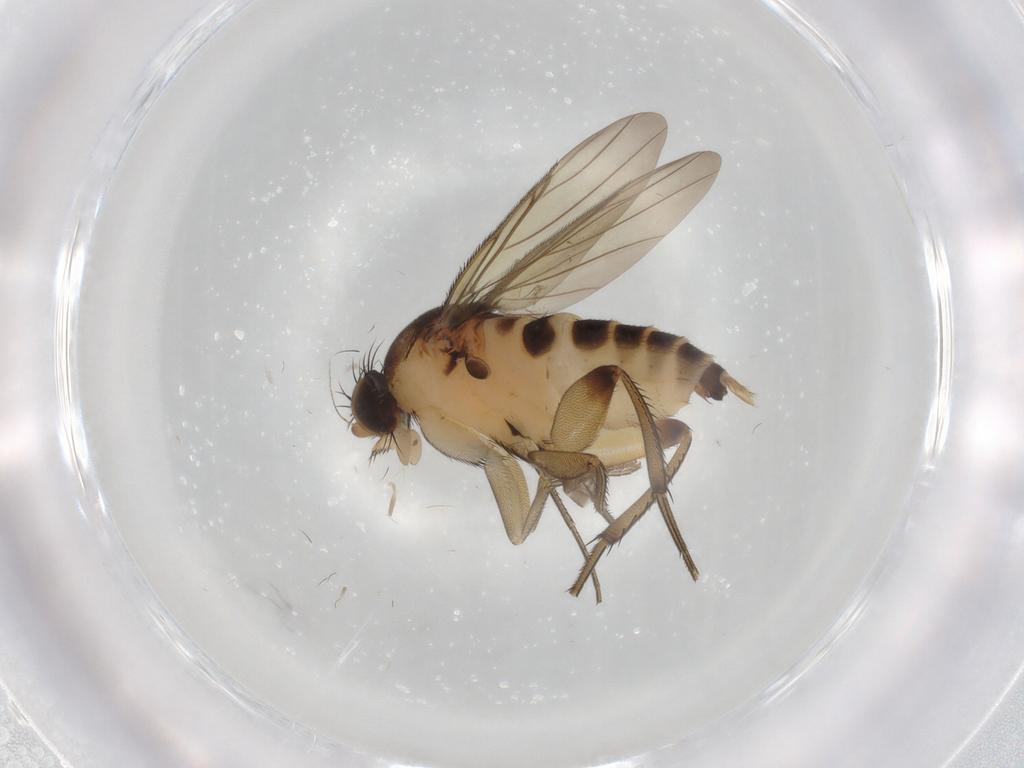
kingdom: Animalia
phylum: Arthropoda
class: Insecta
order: Diptera
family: Phoridae
